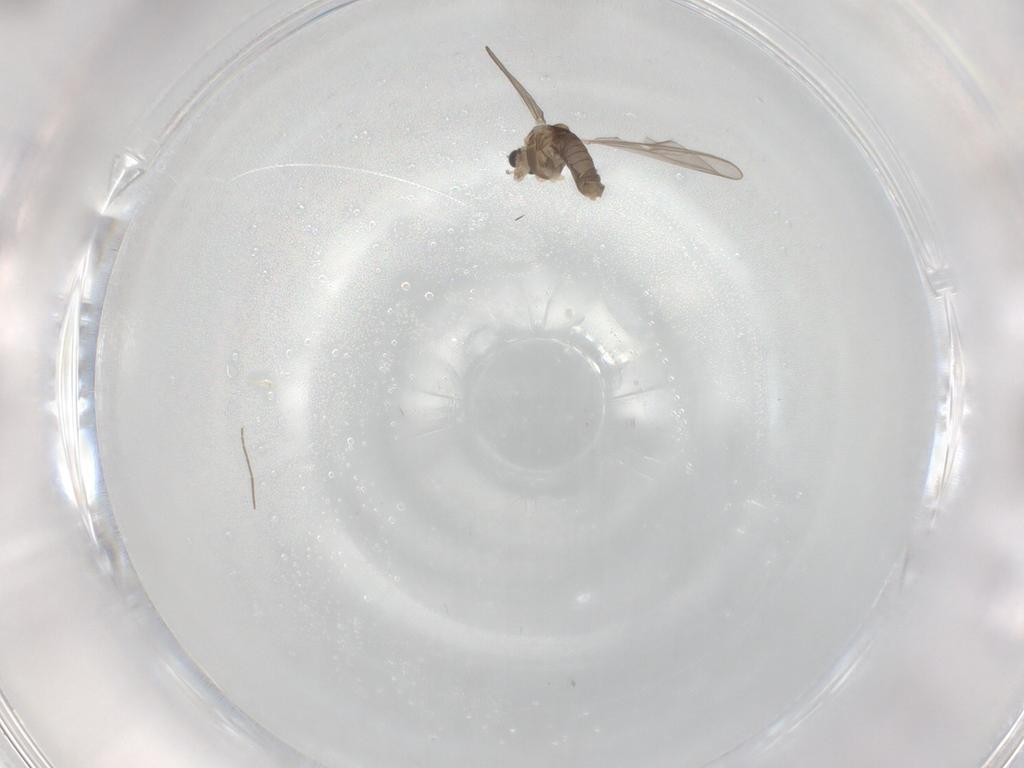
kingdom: Animalia
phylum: Arthropoda
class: Insecta
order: Diptera
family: Chironomidae
